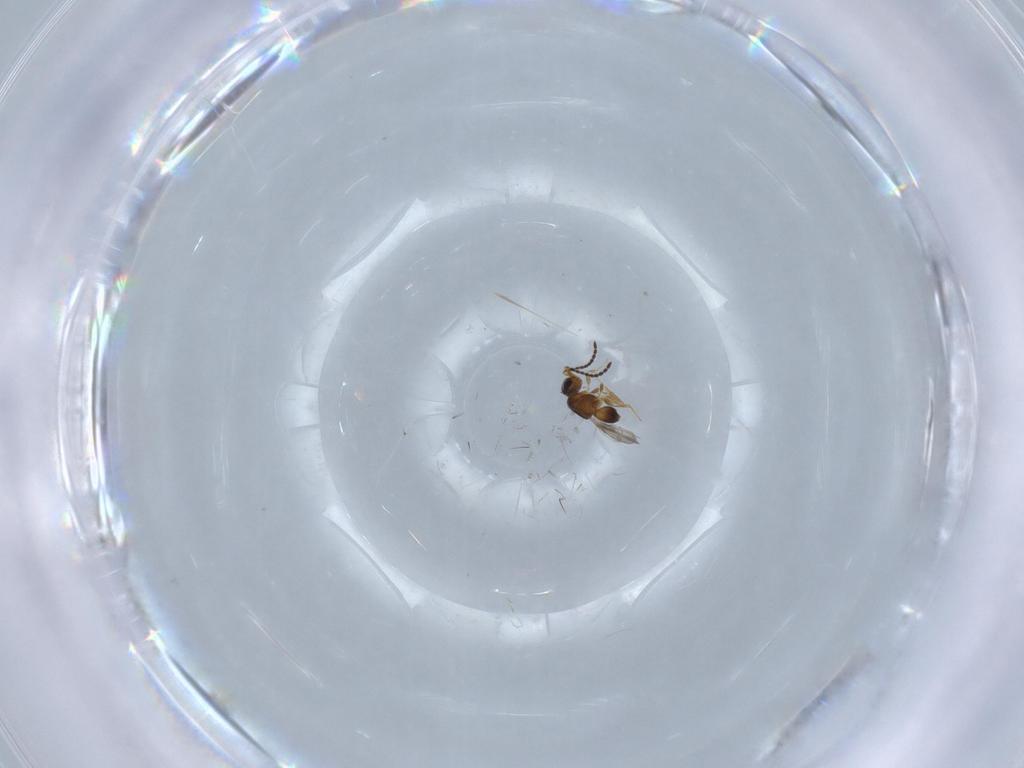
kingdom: Animalia
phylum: Arthropoda
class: Insecta
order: Hymenoptera
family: Ceraphronidae
